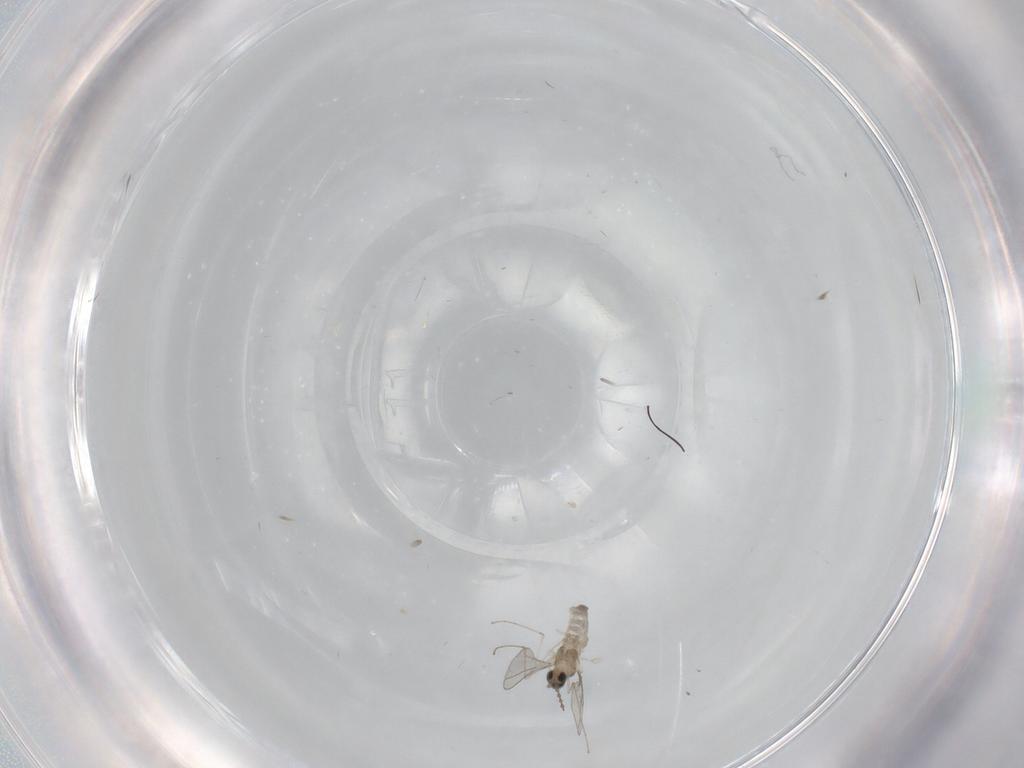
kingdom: Animalia
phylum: Arthropoda
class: Insecta
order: Diptera
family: Phoridae
